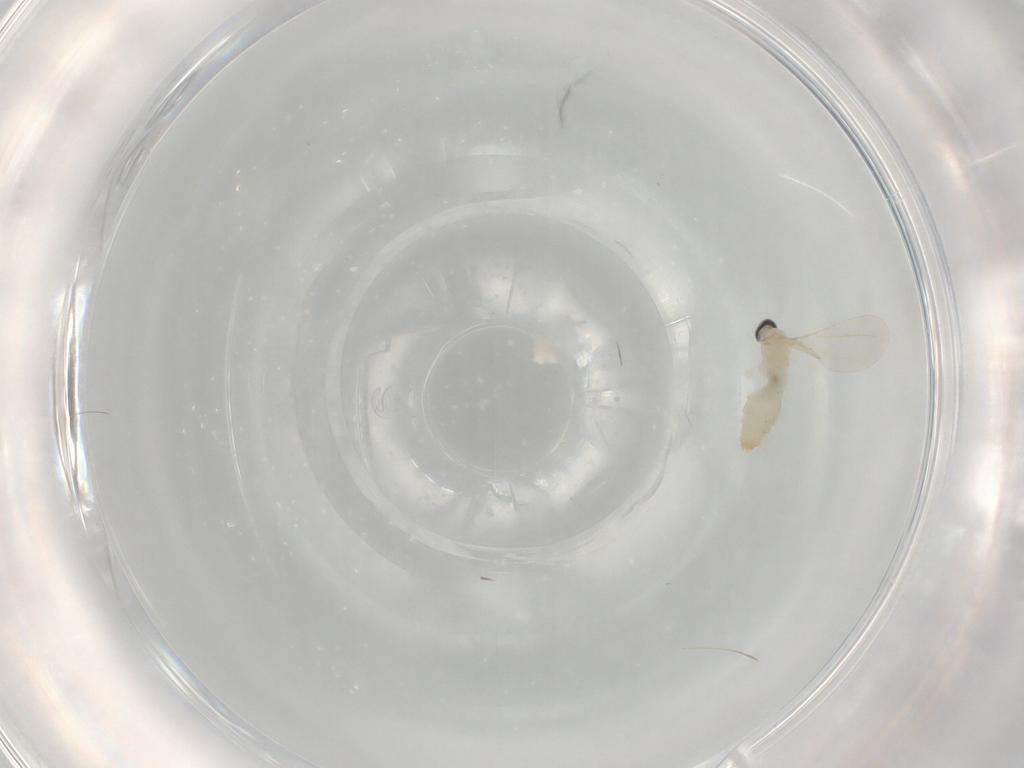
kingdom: Animalia
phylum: Arthropoda
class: Insecta
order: Diptera
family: Cecidomyiidae
